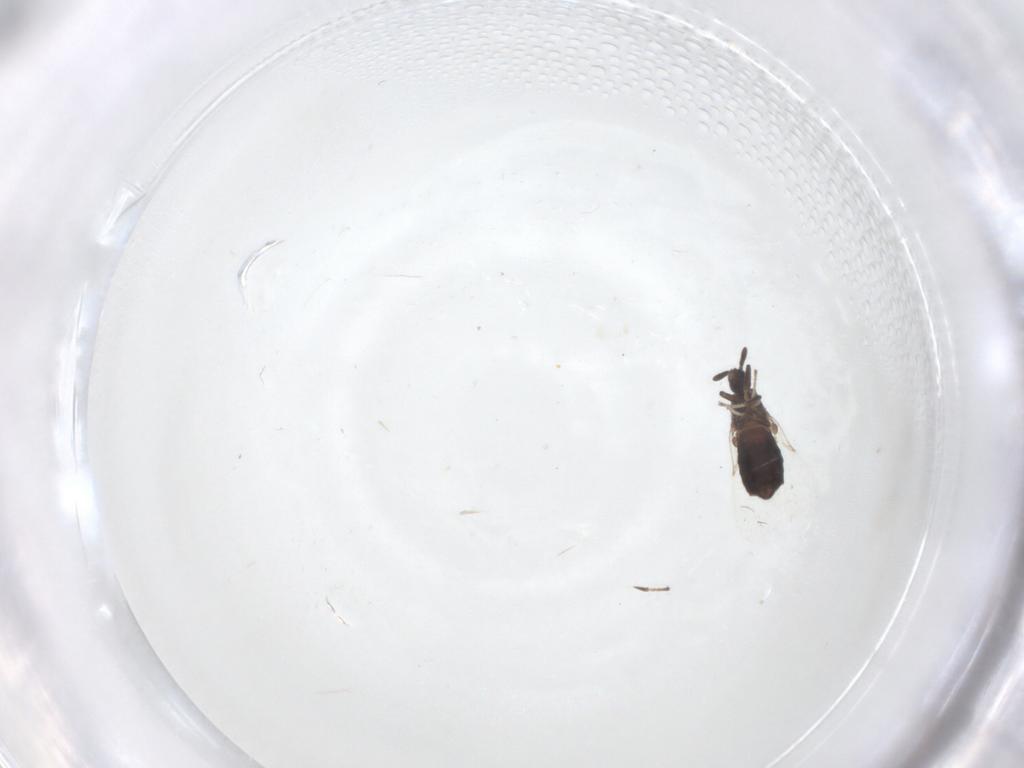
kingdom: Animalia
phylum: Arthropoda
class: Insecta
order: Diptera
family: Scatopsidae
